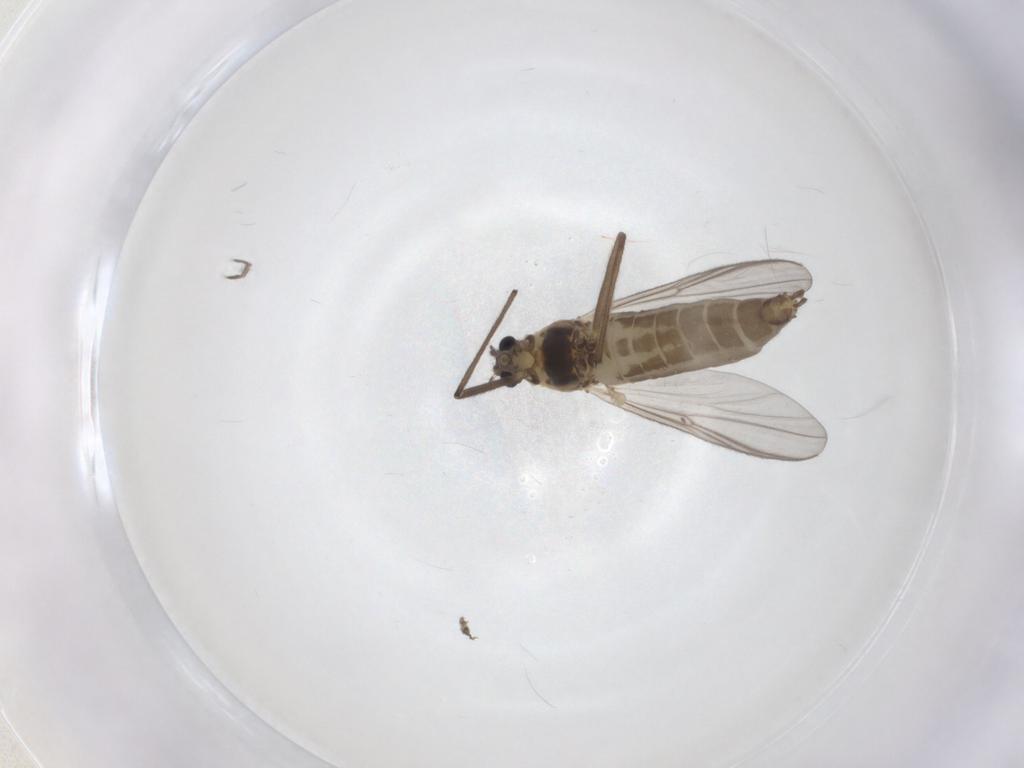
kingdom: Animalia
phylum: Arthropoda
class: Insecta
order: Diptera
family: Chironomidae
